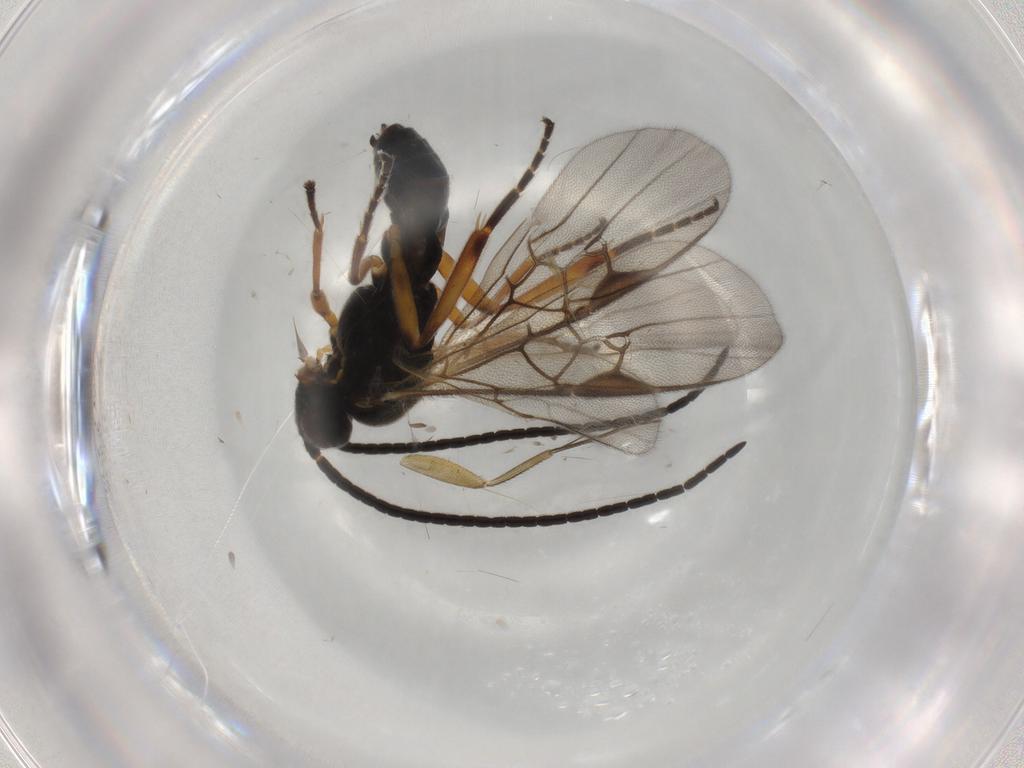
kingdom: Animalia
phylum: Arthropoda
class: Insecta
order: Hymenoptera
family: Braconidae
